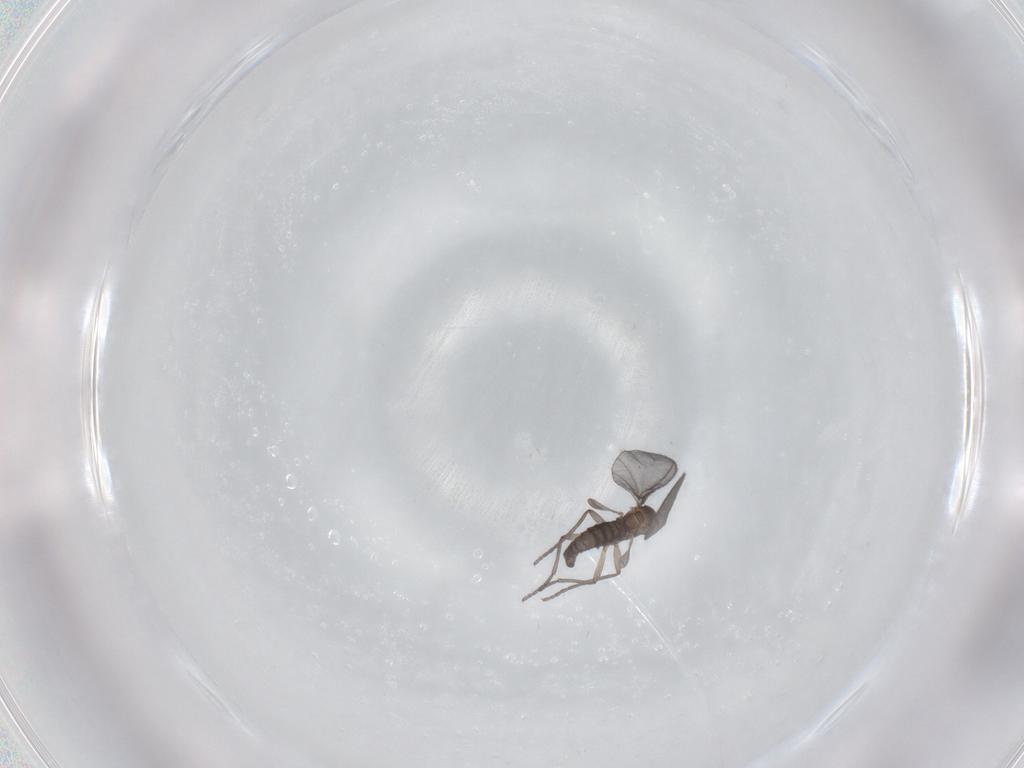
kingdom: Animalia
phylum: Arthropoda
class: Insecta
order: Diptera
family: Sciaridae
